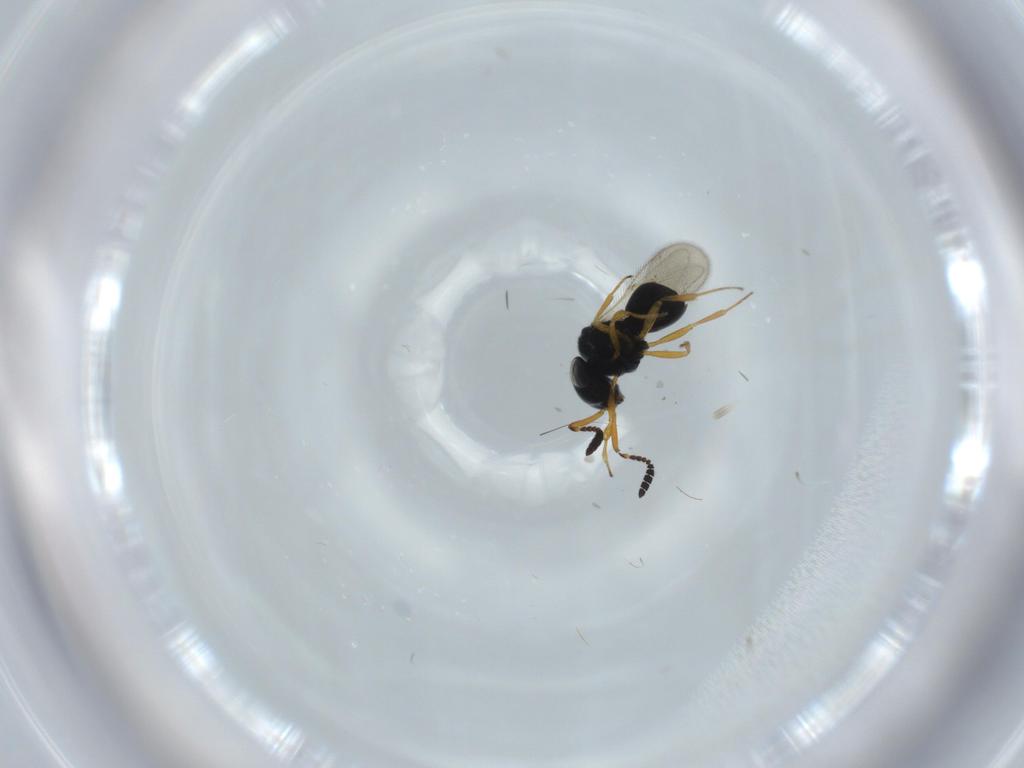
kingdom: Animalia
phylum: Arthropoda
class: Insecta
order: Hymenoptera
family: Scelionidae
